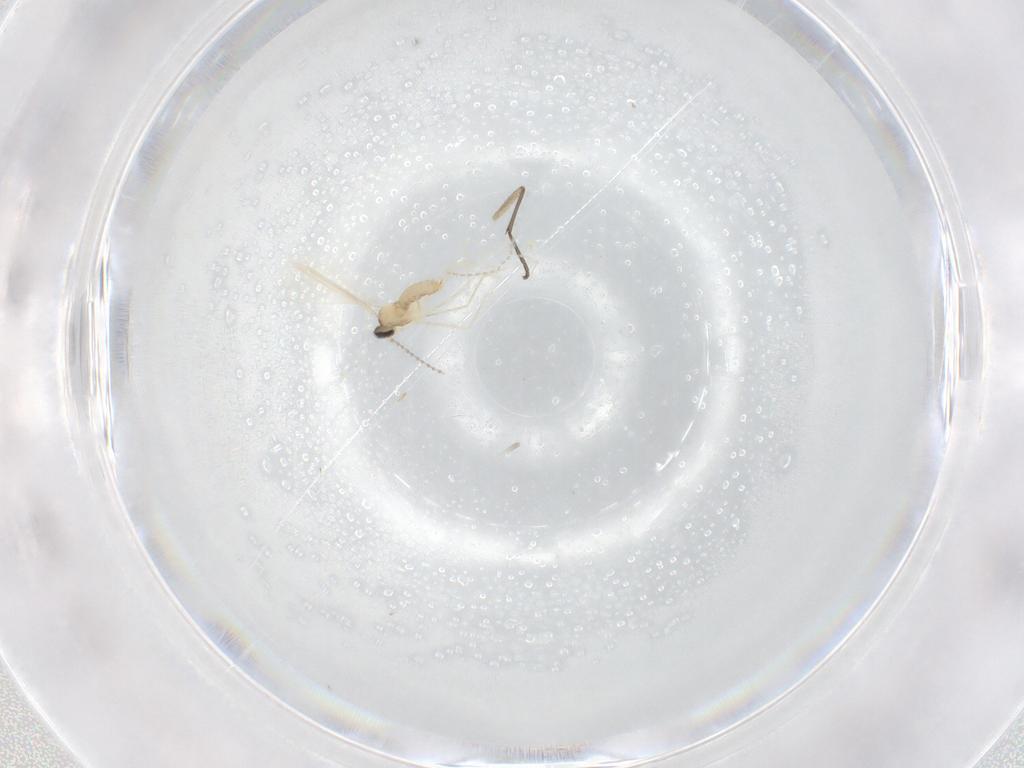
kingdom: Animalia
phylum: Arthropoda
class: Insecta
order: Diptera
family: Cecidomyiidae
